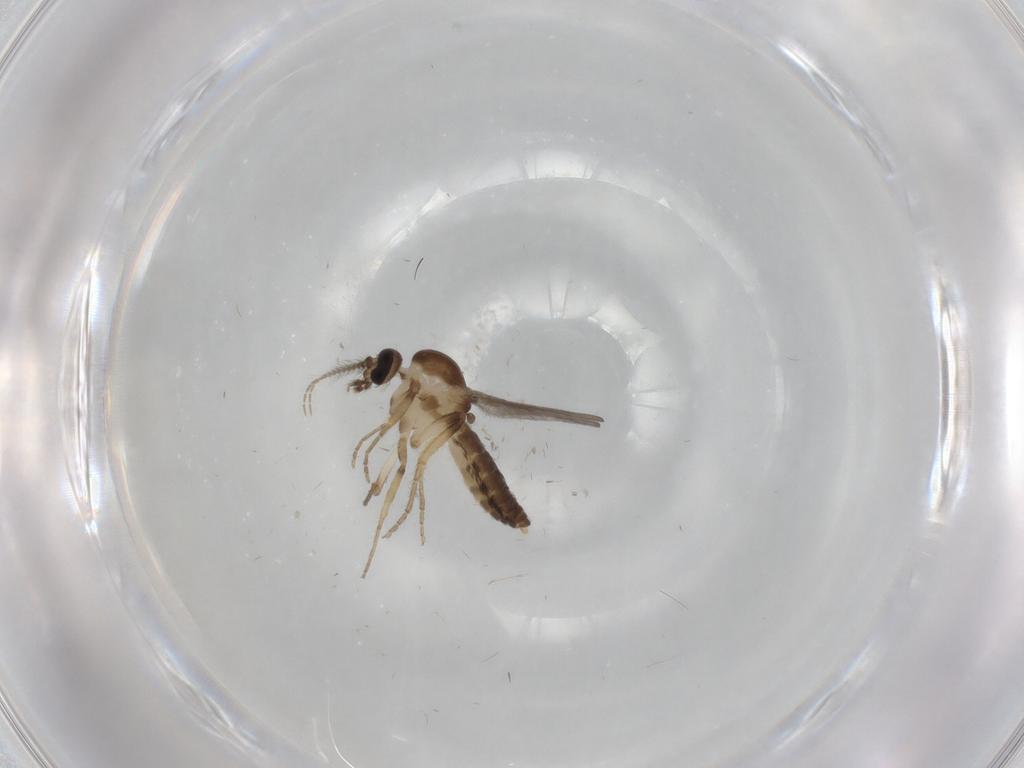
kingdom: Animalia
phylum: Arthropoda
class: Insecta
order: Diptera
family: Ceratopogonidae
